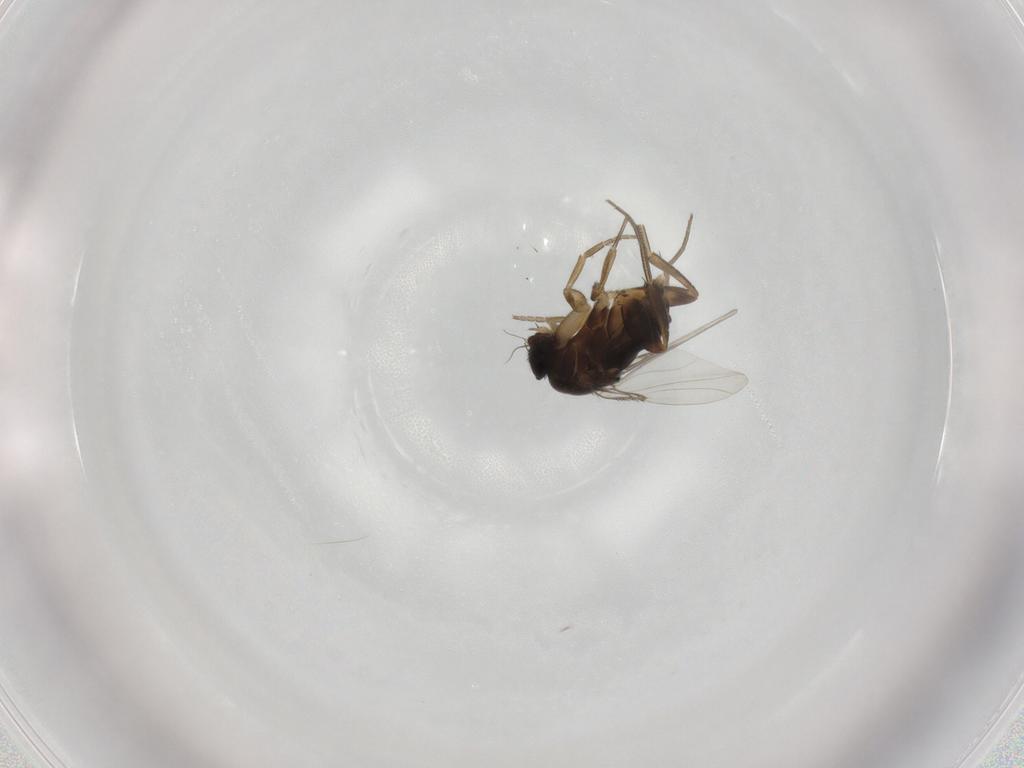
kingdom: Animalia
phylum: Arthropoda
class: Insecta
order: Diptera
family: Phoridae
